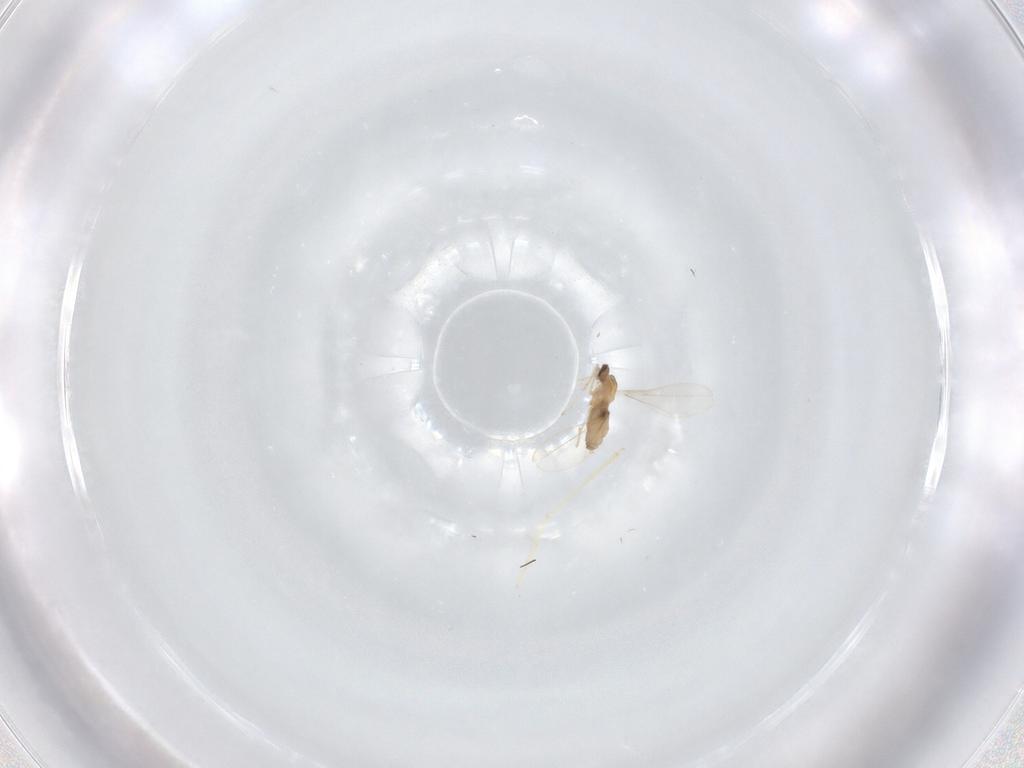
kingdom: Animalia
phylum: Arthropoda
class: Insecta
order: Diptera
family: Cecidomyiidae
